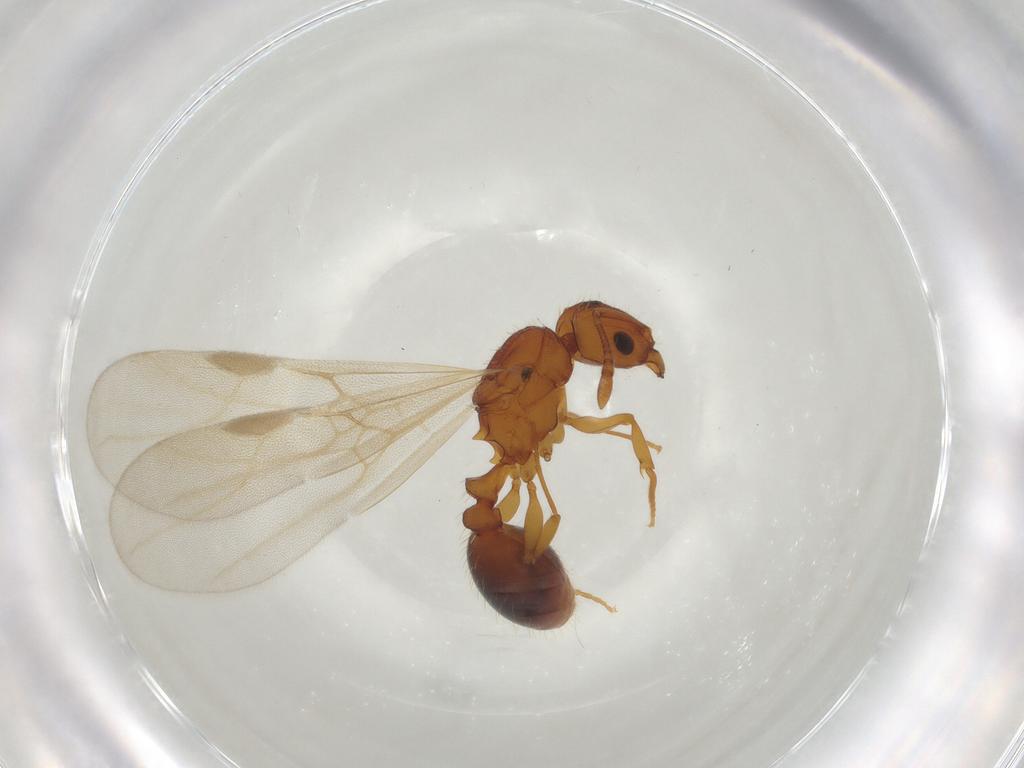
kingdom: Animalia
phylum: Arthropoda
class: Insecta
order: Hymenoptera
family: Formicidae
